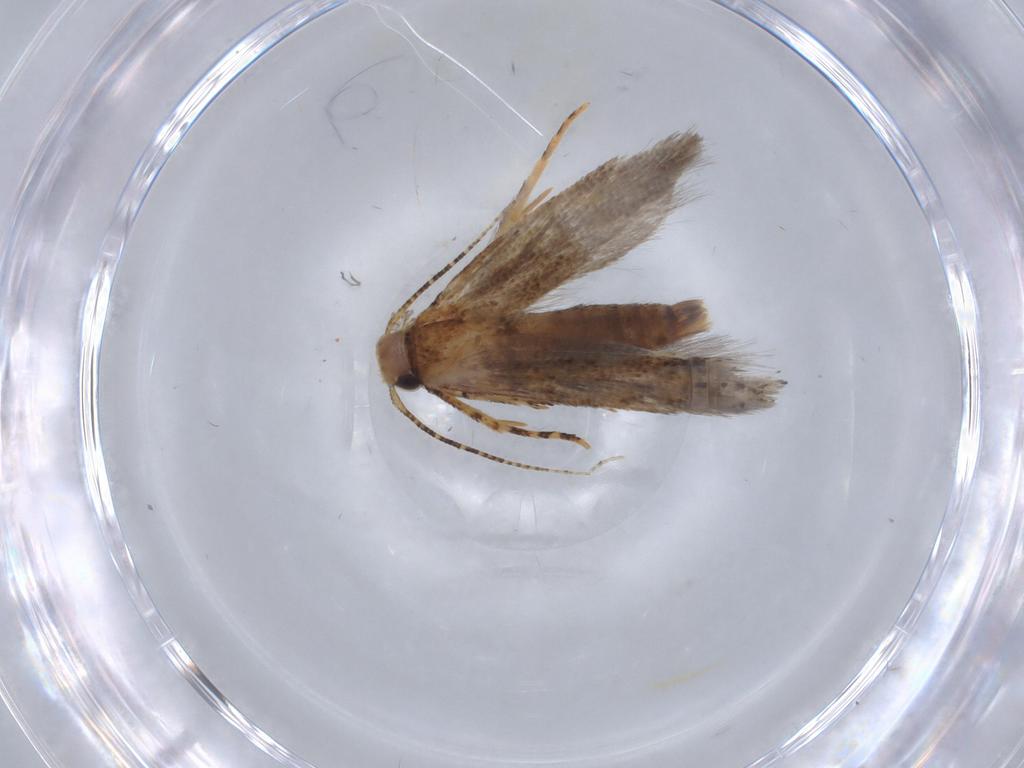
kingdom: Animalia
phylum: Arthropoda
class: Insecta
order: Lepidoptera
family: Gelechiidae
